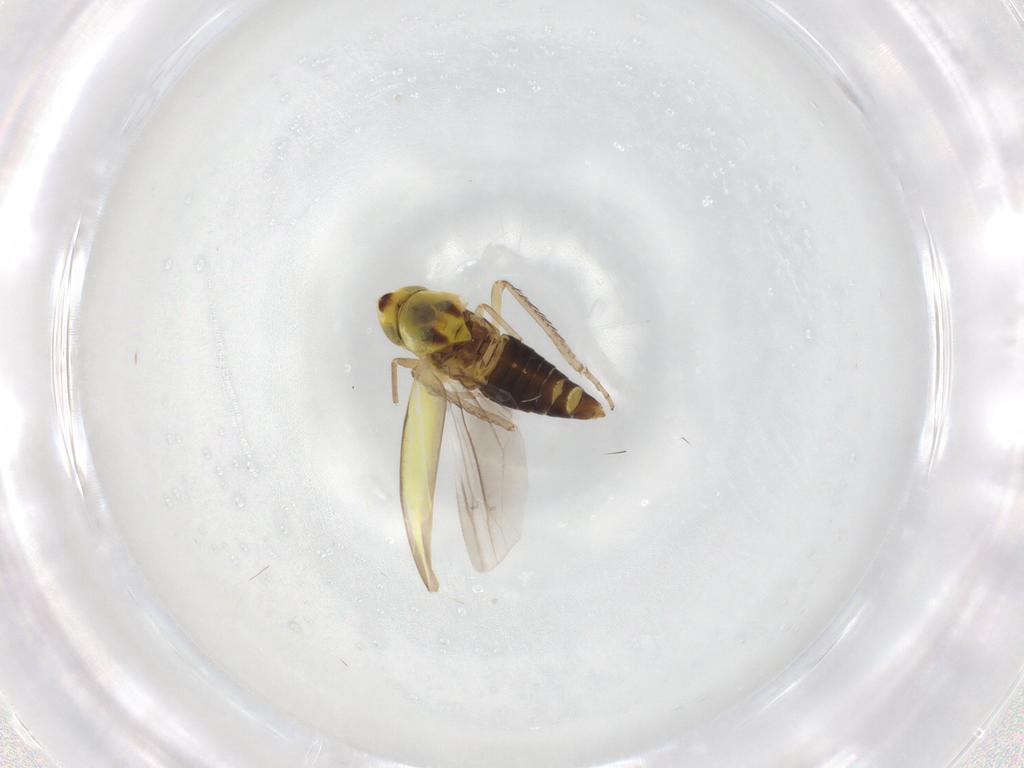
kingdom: Animalia
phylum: Arthropoda
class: Insecta
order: Hemiptera
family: Cicadellidae
